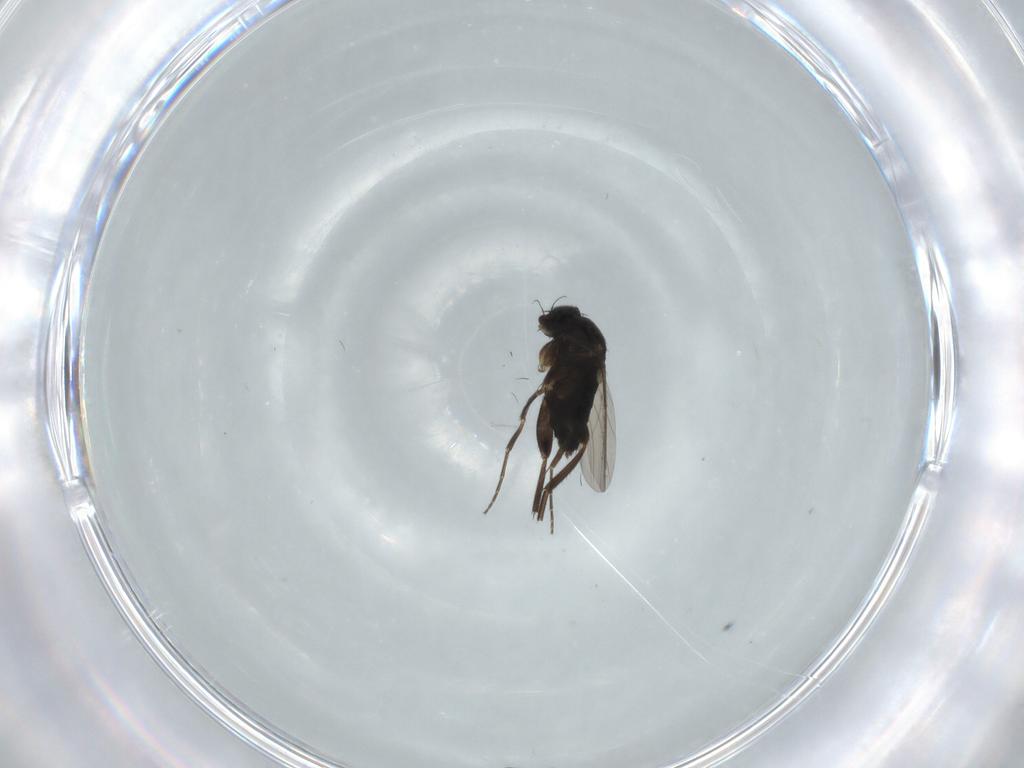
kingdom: Animalia
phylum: Arthropoda
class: Insecta
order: Diptera
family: Phoridae
